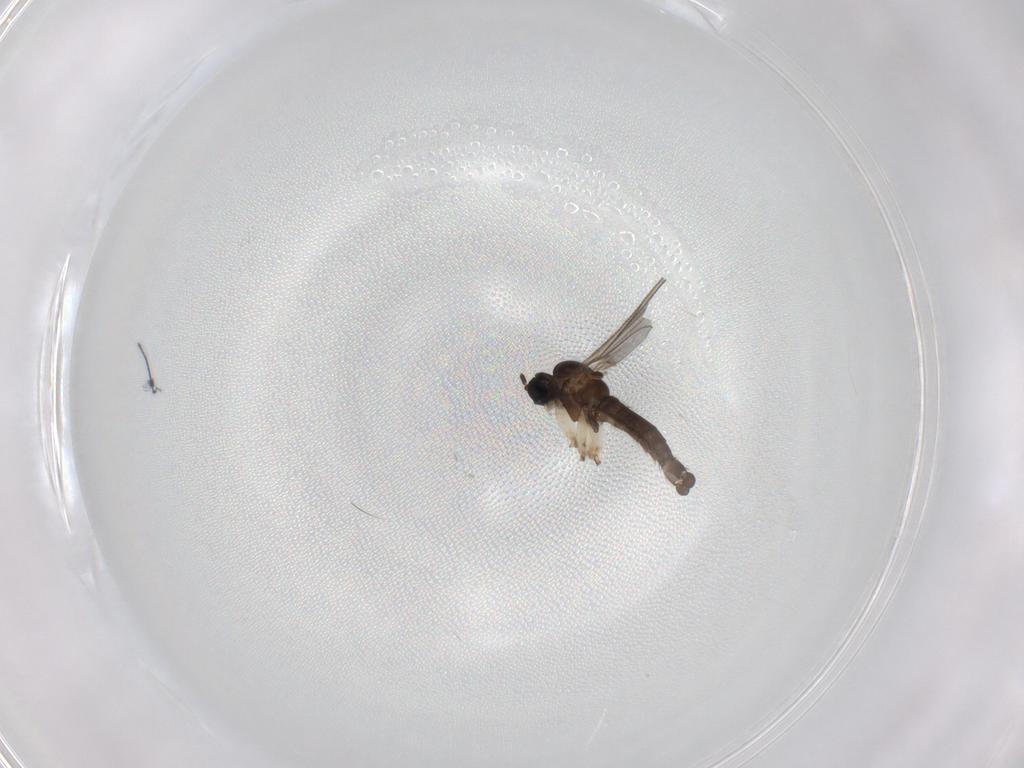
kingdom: Animalia
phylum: Arthropoda
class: Insecta
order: Diptera
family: Sciaridae
